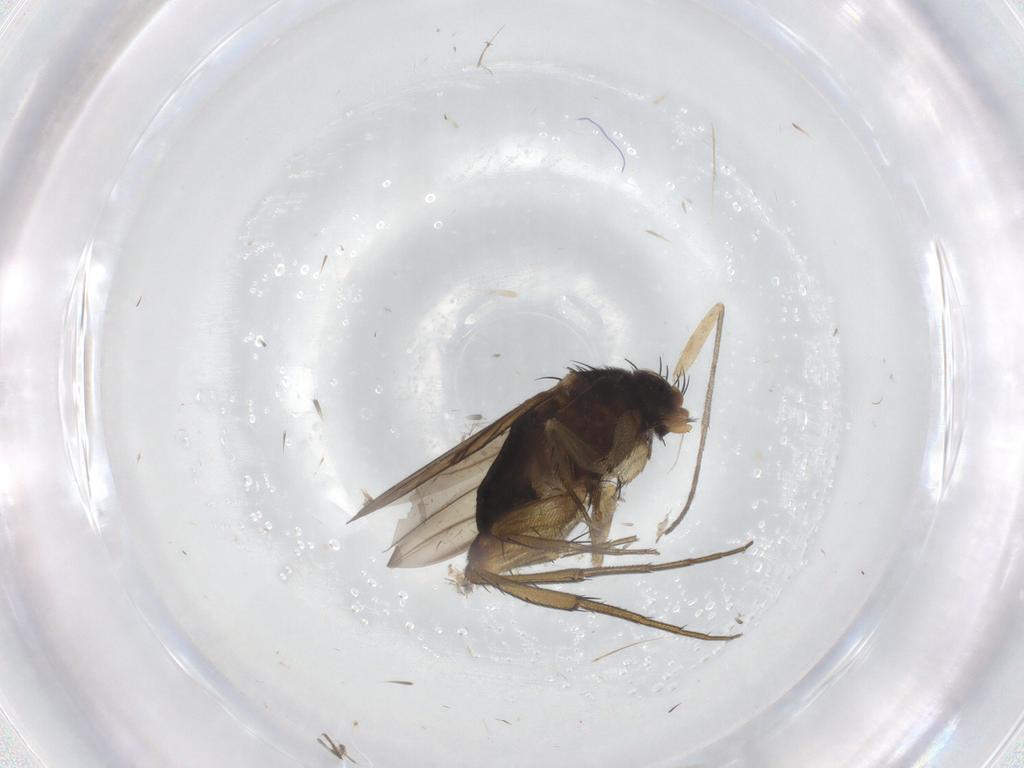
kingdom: Animalia
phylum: Arthropoda
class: Insecta
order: Diptera
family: Phoridae
